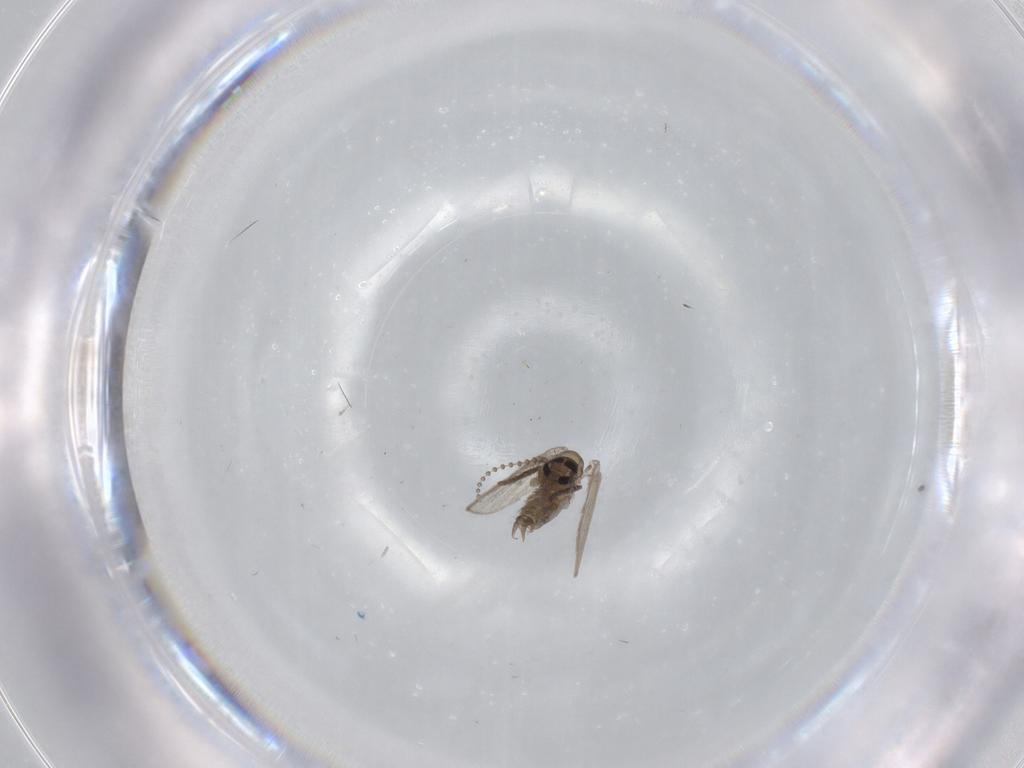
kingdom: Animalia
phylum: Arthropoda
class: Insecta
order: Diptera
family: Psychodidae
